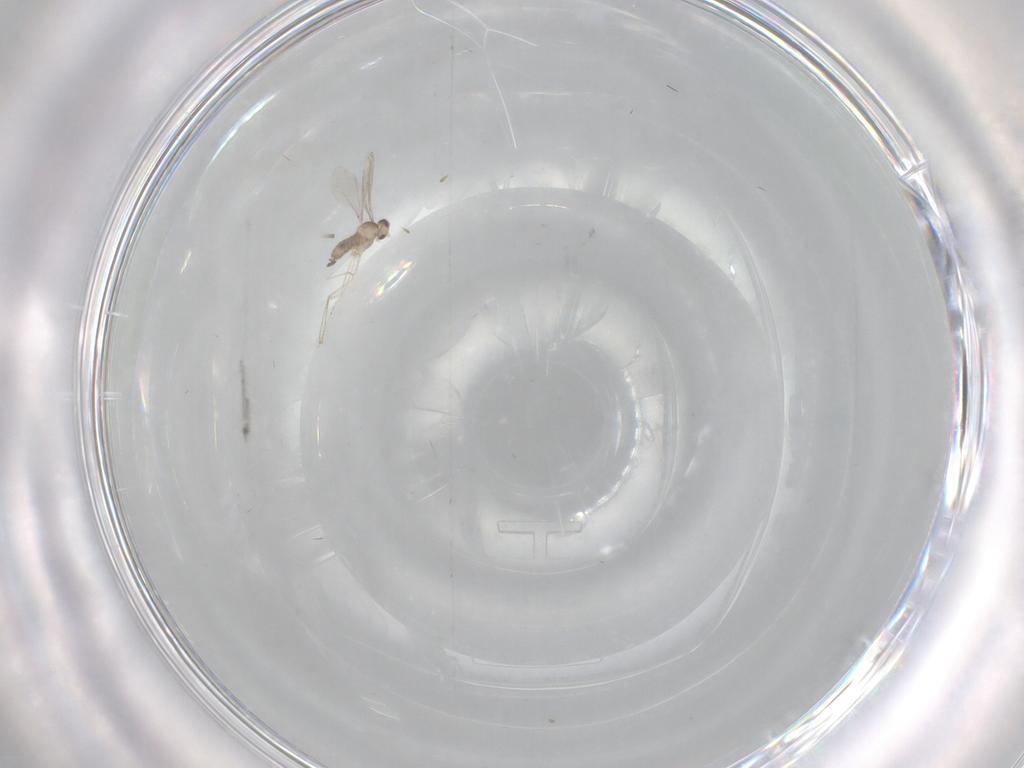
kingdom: Animalia
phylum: Arthropoda
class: Insecta
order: Diptera
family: Cecidomyiidae
